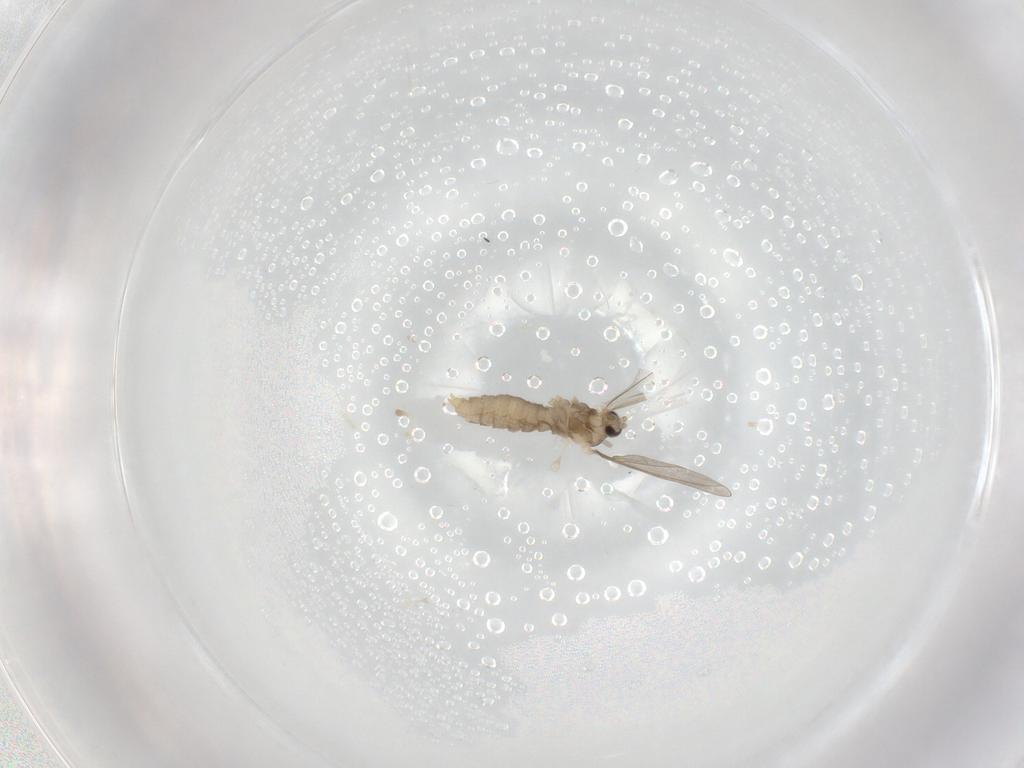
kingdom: Animalia
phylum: Arthropoda
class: Insecta
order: Diptera
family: Cecidomyiidae
